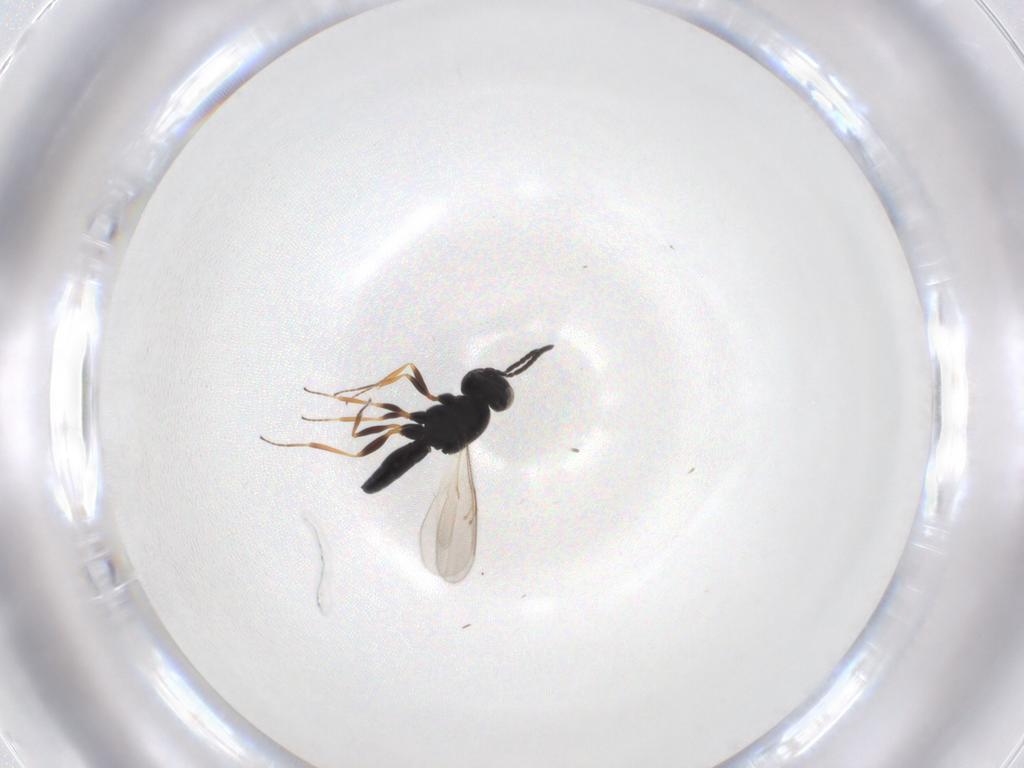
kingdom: Animalia
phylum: Arthropoda
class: Insecta
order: Hymenoptera
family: Scelionidae
